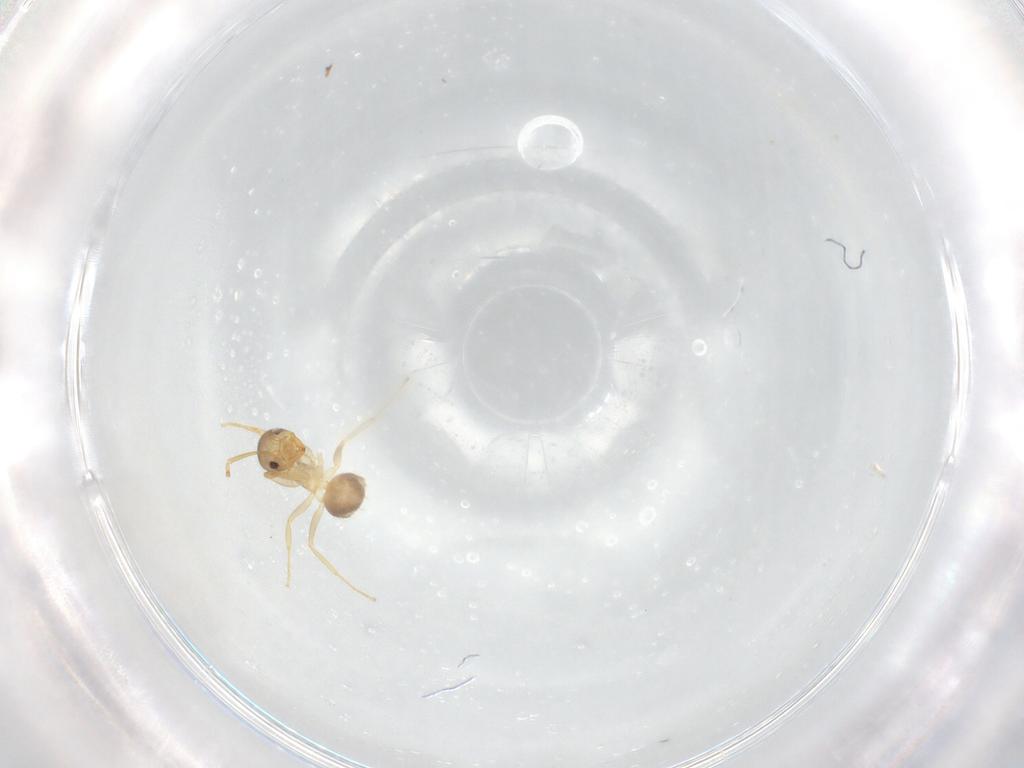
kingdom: Animalia
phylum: Arthropoda
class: Insecta
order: Hymenoptera
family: Formicidae
